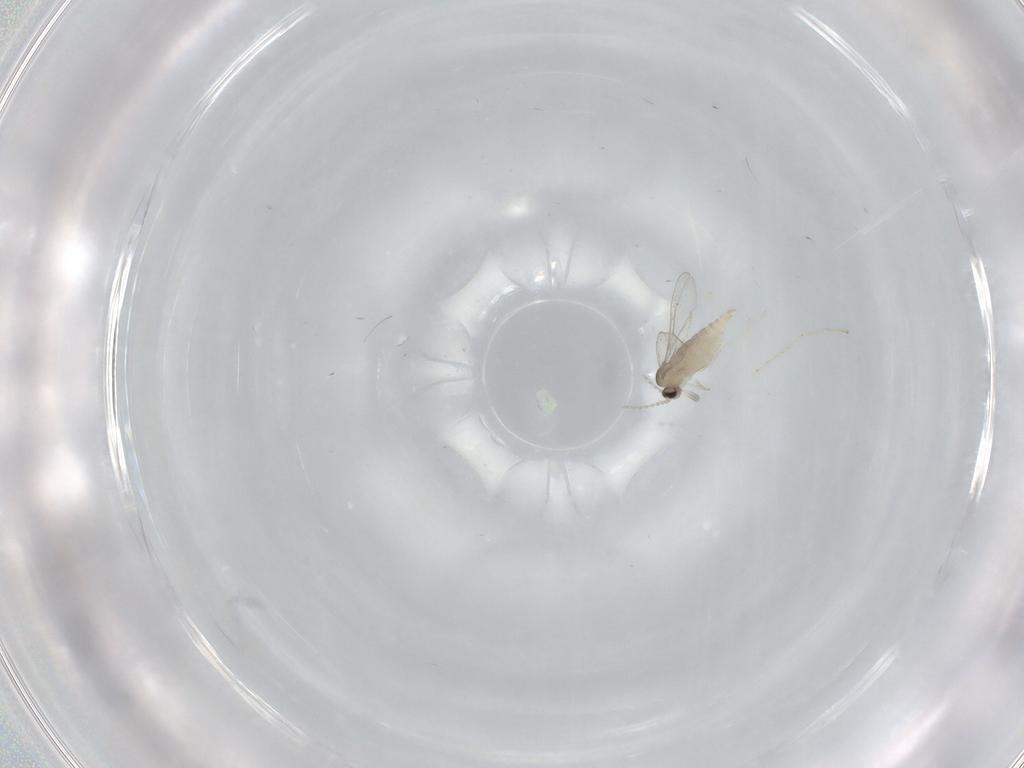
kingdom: Animalia
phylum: Arthropoda
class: Insecta
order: Diptera
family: Cecidomyiidae
